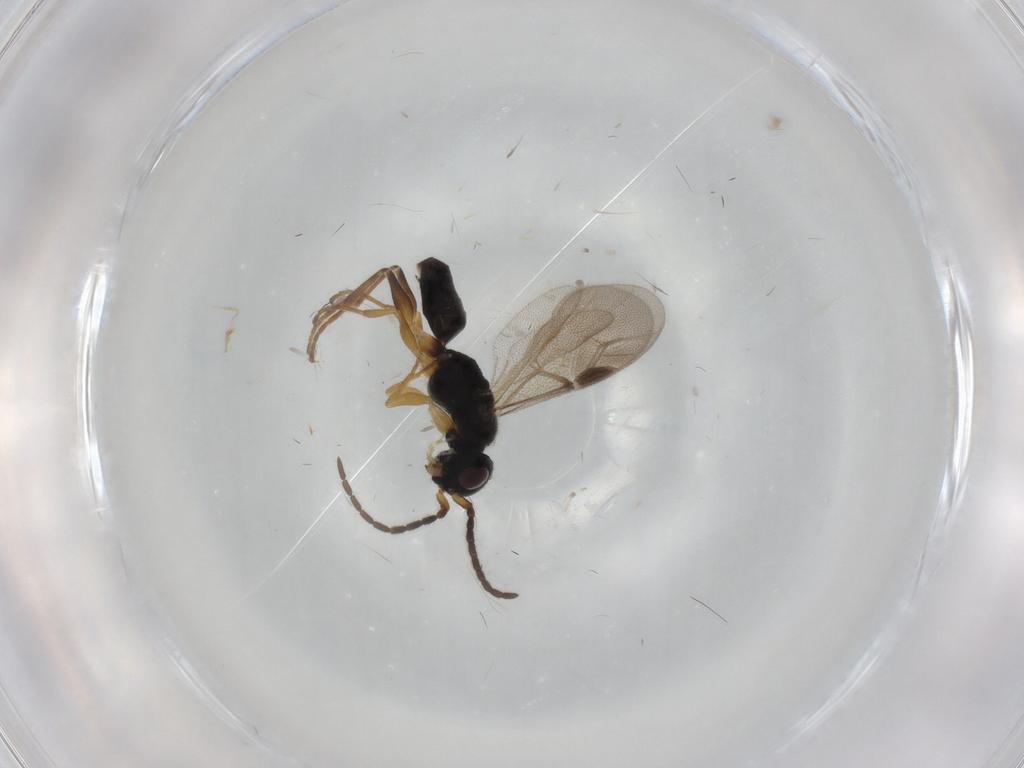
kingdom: Animalia
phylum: Arthropoda
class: Insecta
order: Hymenoptera
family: Dryinidae
